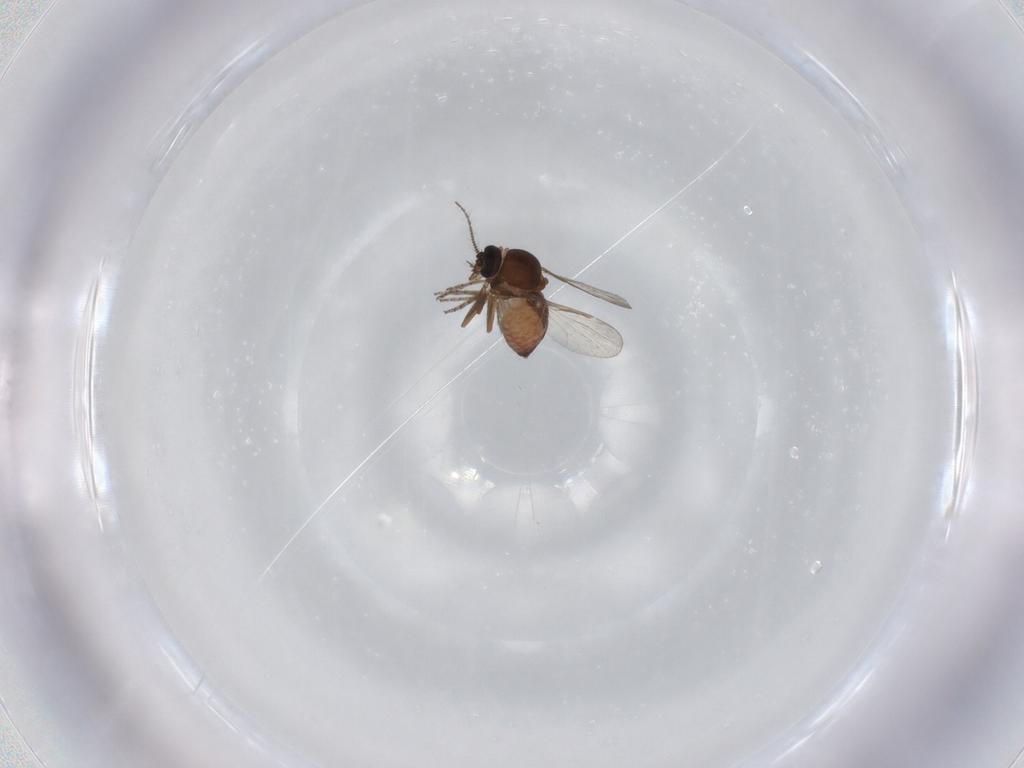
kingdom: Animalia
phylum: Arthropoda
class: Insecta
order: Diptera
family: Ceratopogonidae
